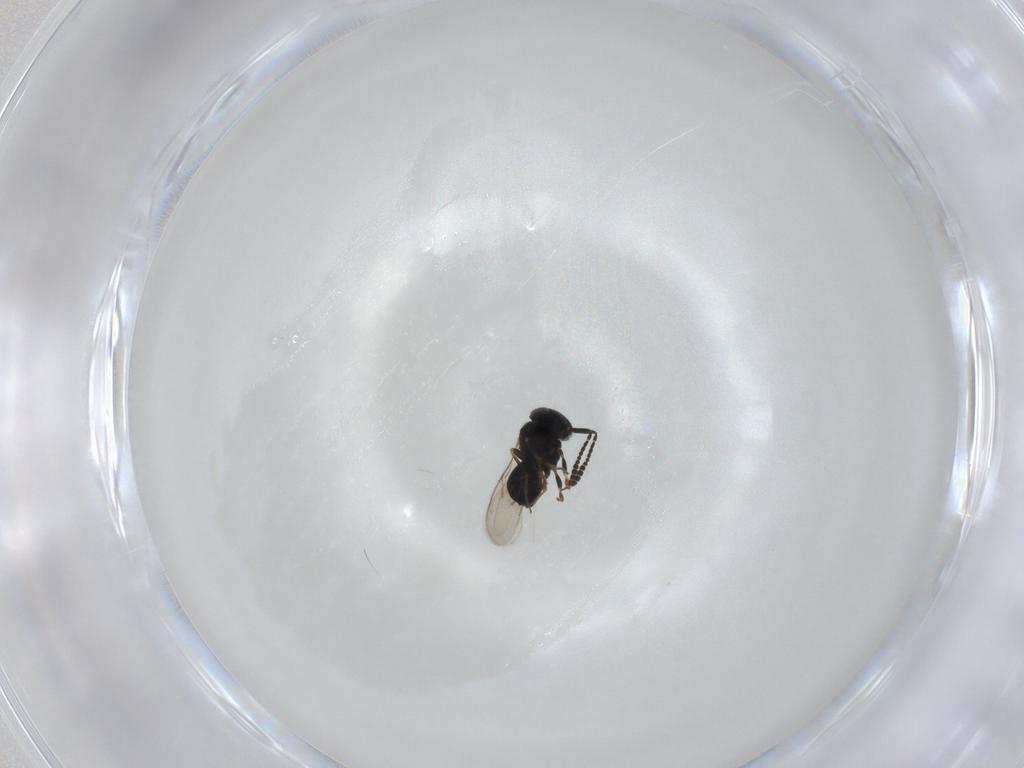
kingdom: Animalia
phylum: Arthropoda
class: Insecta
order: Hymenoptera
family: Scelionidae
